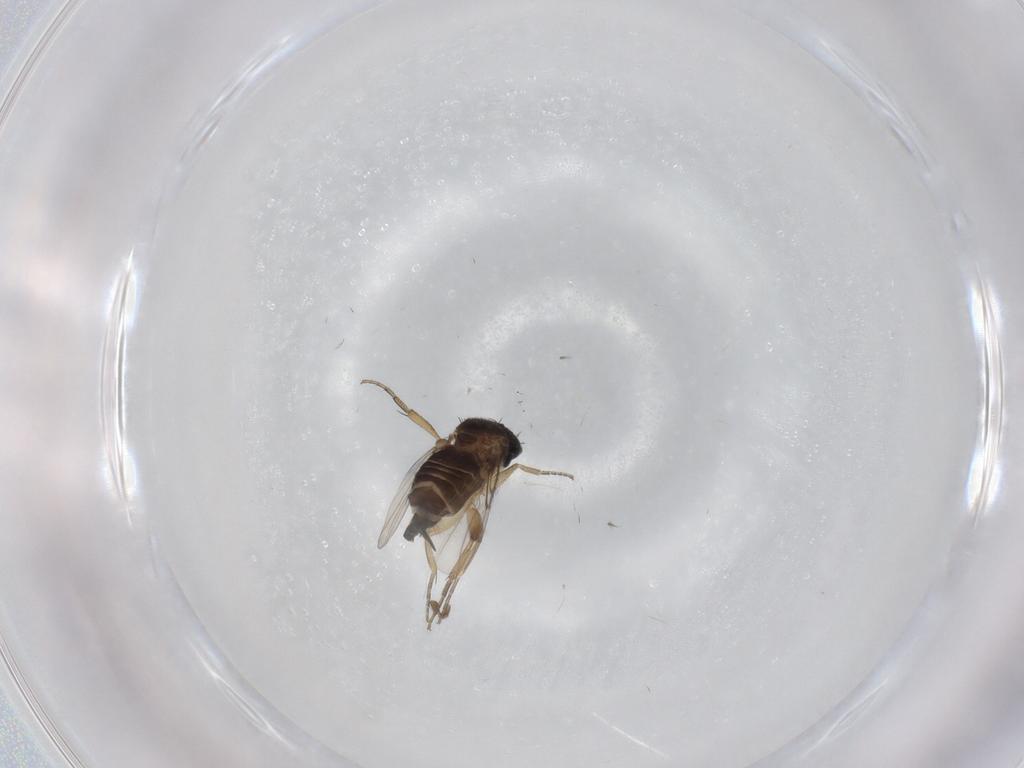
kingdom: Animalia
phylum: Arthropoda
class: Insecta
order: Diptera
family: Phoridae
